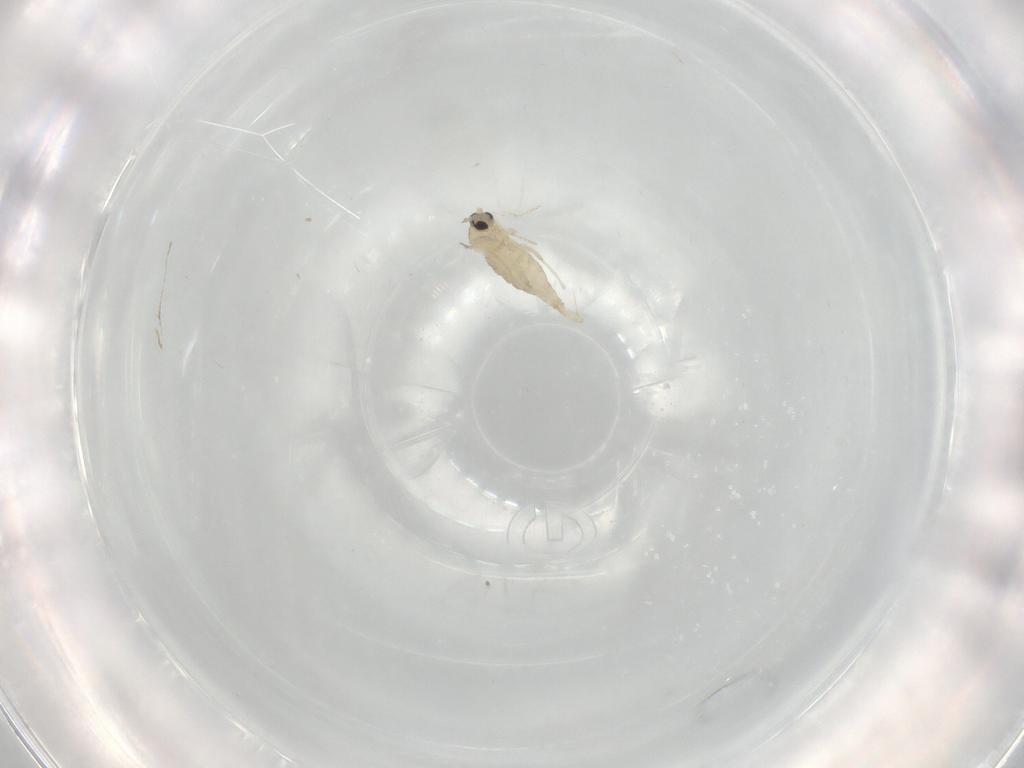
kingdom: Animalia
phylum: Arthropoda
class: Insecta
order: Diptera
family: Cecidomyiidae
